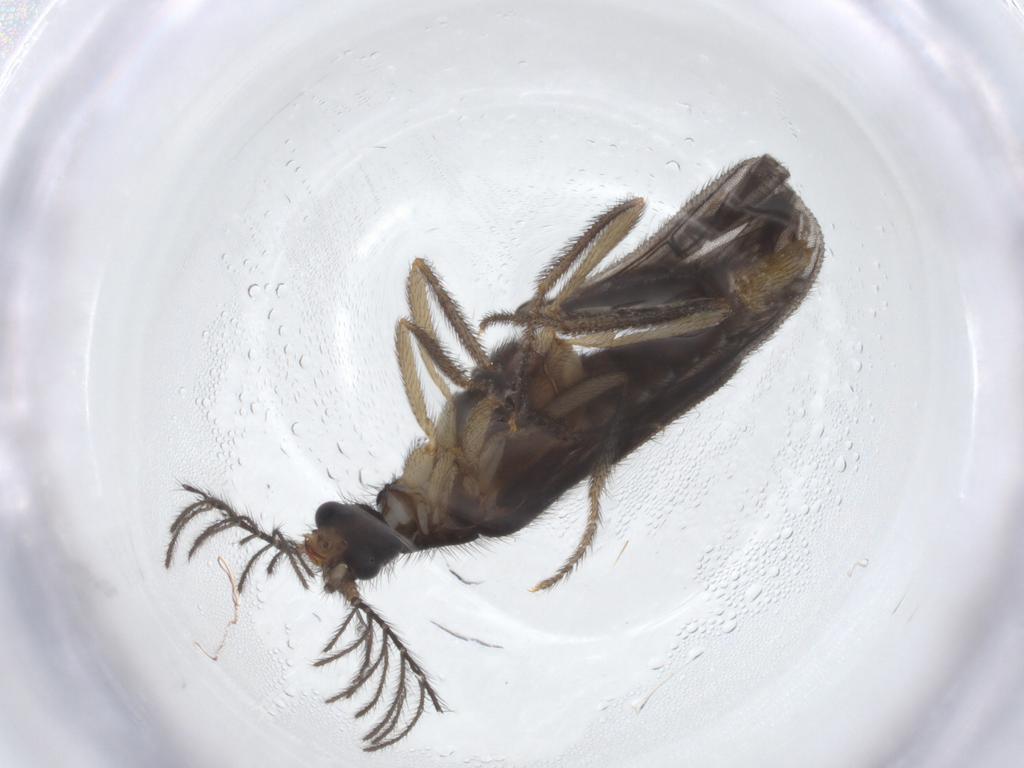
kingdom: Animalia
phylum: Arthropoda
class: Insecta
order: Coleoptera
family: Phengodidae
